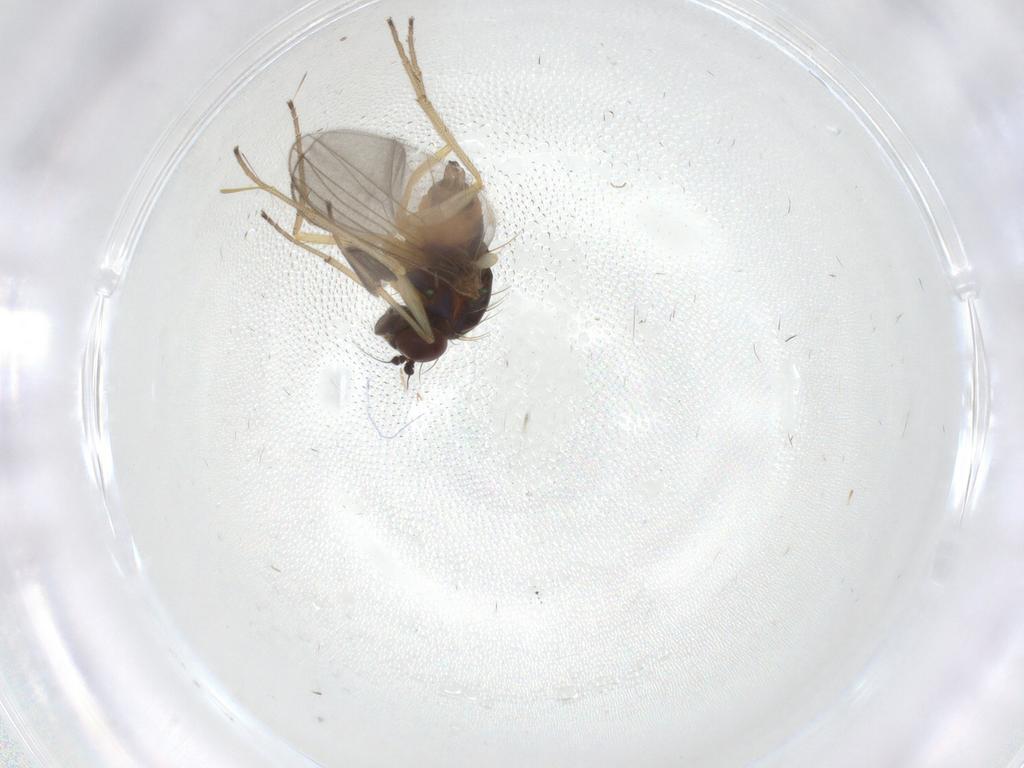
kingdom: Animalia
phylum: Arthropoda
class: Insecta
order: Diptera
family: Dolichopodidae
